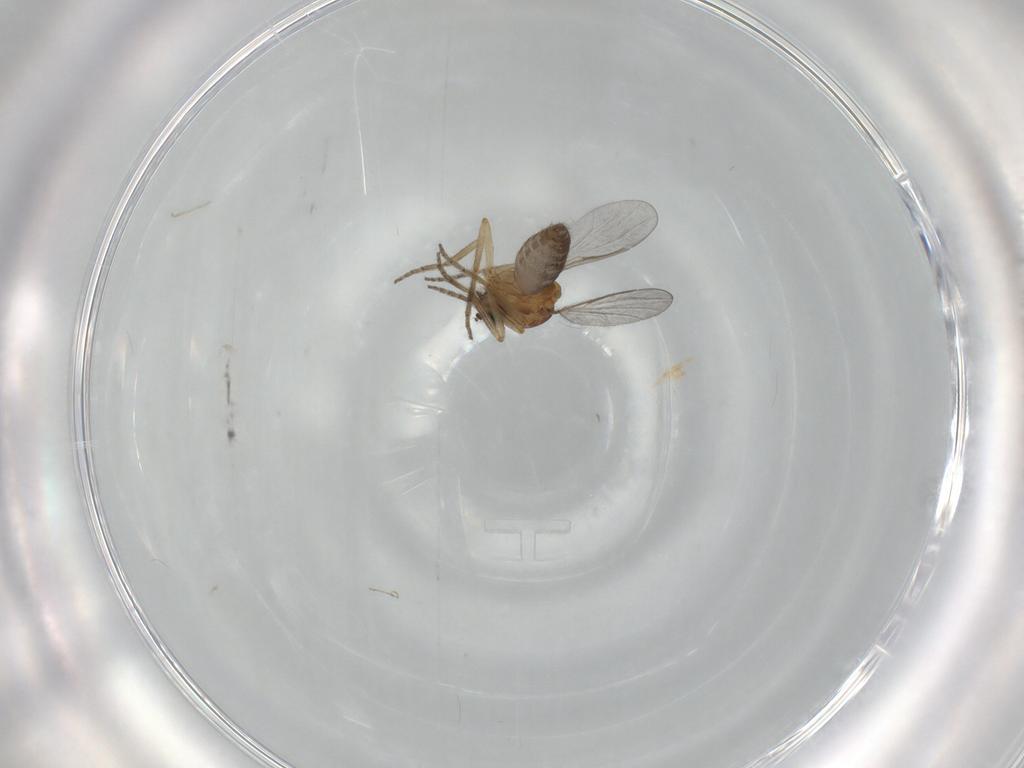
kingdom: Animalia
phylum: Arthropoda
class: Insecta
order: Diptera
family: Ceratopogonidae
